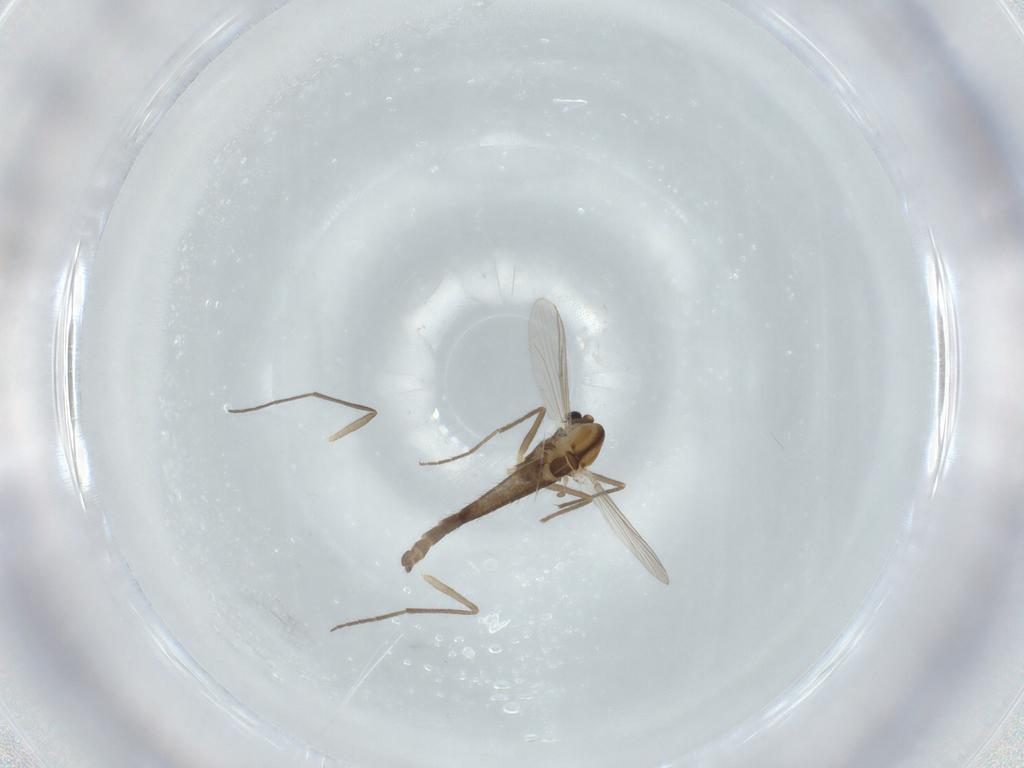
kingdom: Animalia
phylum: Arthropoda
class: Insecta
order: Diptera
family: Chironomidae
